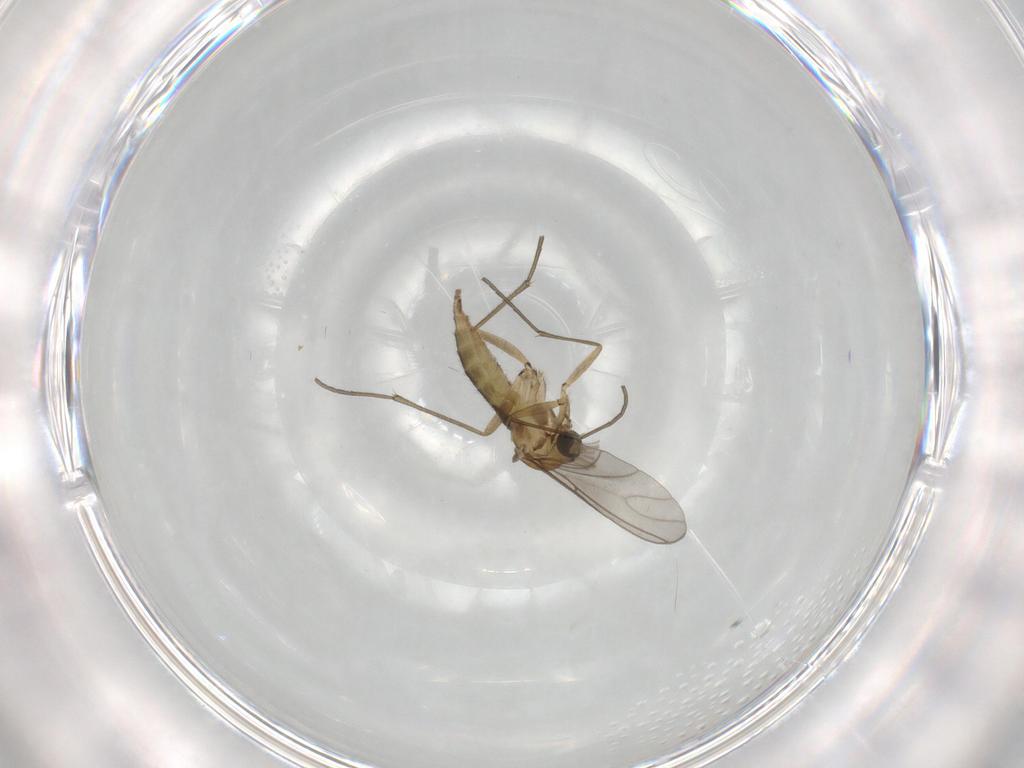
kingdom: Animalia
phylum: Arthropoda
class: Insecta
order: Diptera
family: Sciaridae
